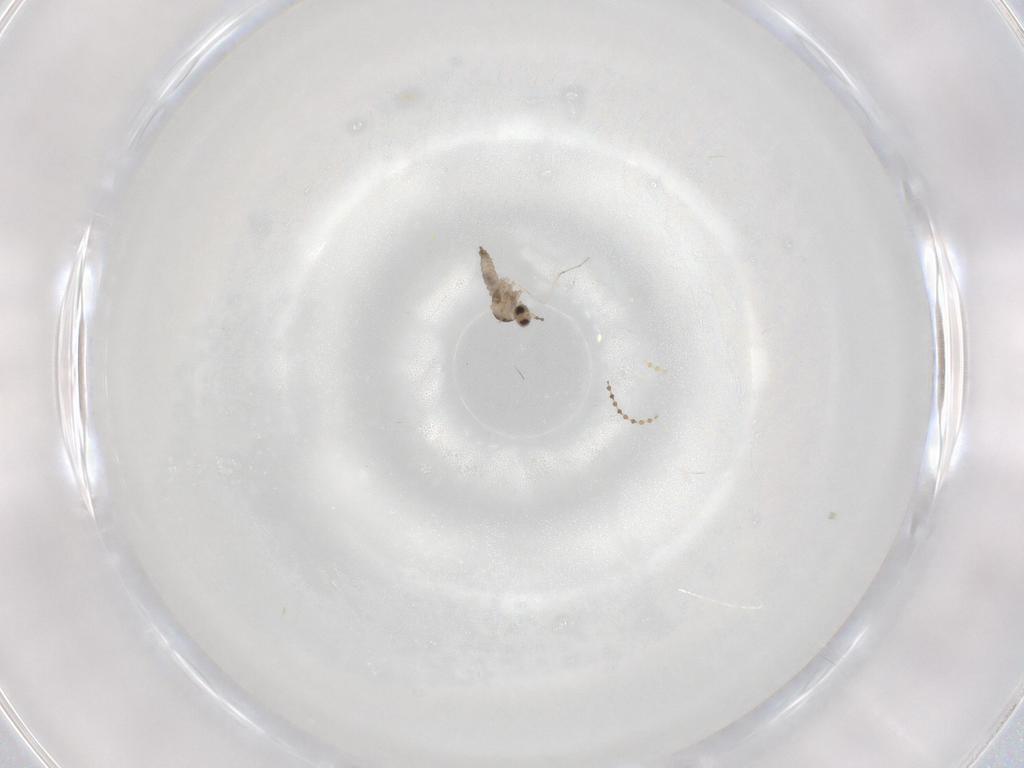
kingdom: Animalia
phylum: Arthropoda
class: Insecta
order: Diptera
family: Cecidomyiidae
